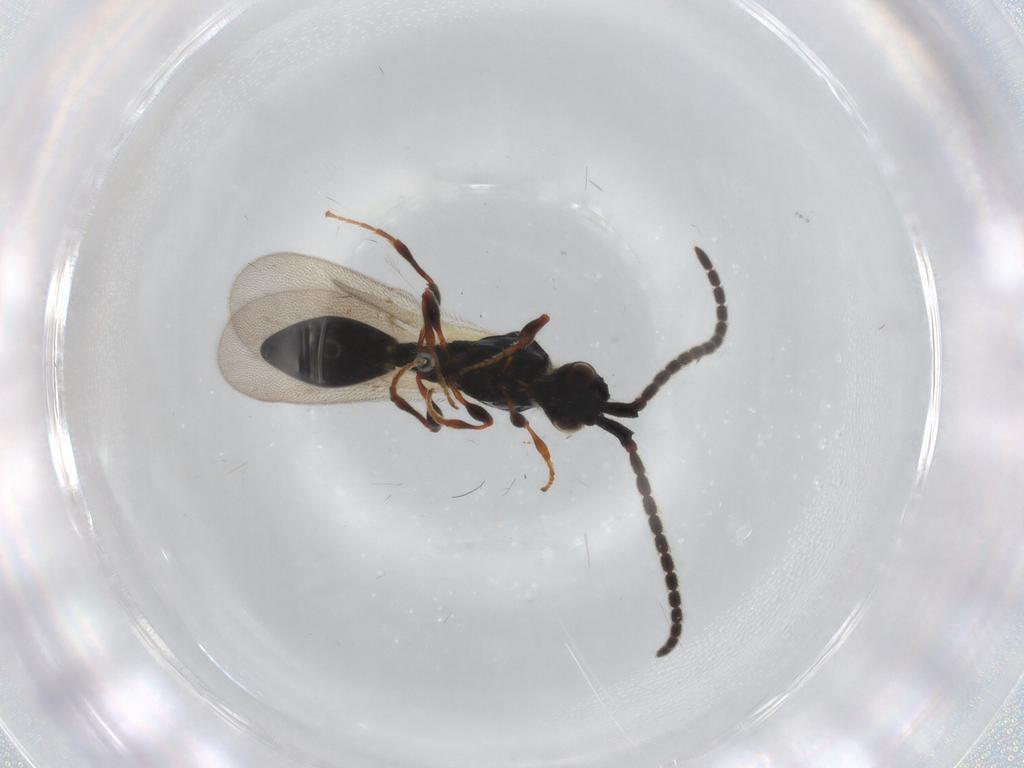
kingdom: Animalia
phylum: Arthropoda
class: Insecta
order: Hymenoptera
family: Diapriidae
